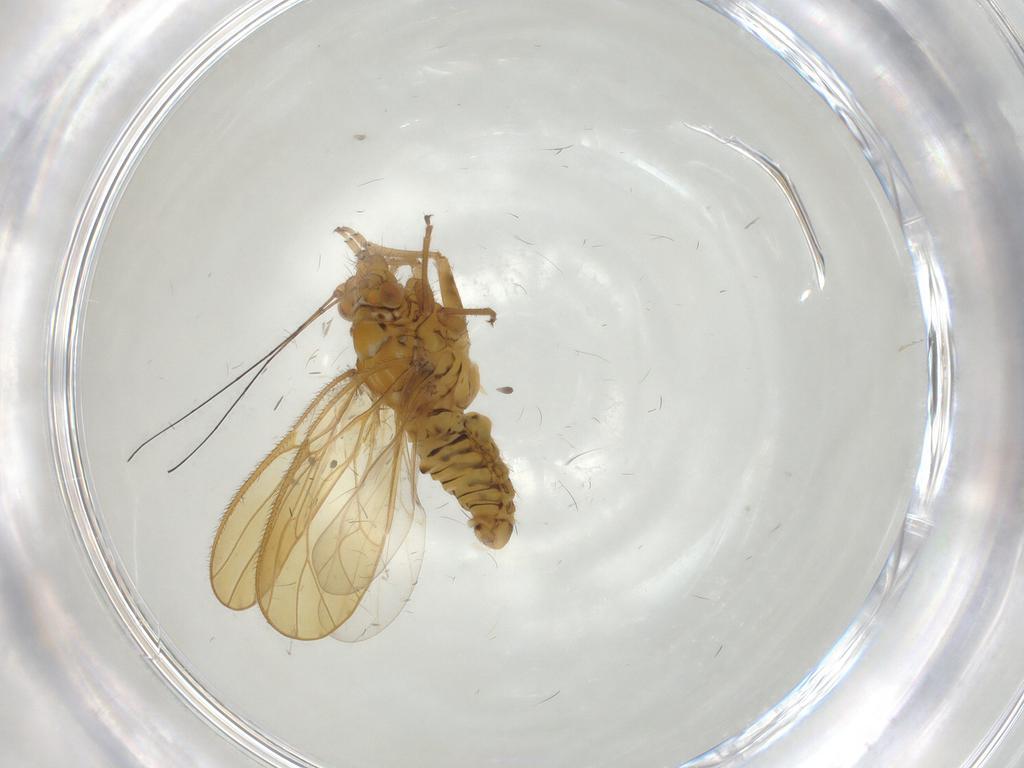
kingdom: Animalia
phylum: Arthropoda
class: Insecta
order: Hemiptera
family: Psyllidae
